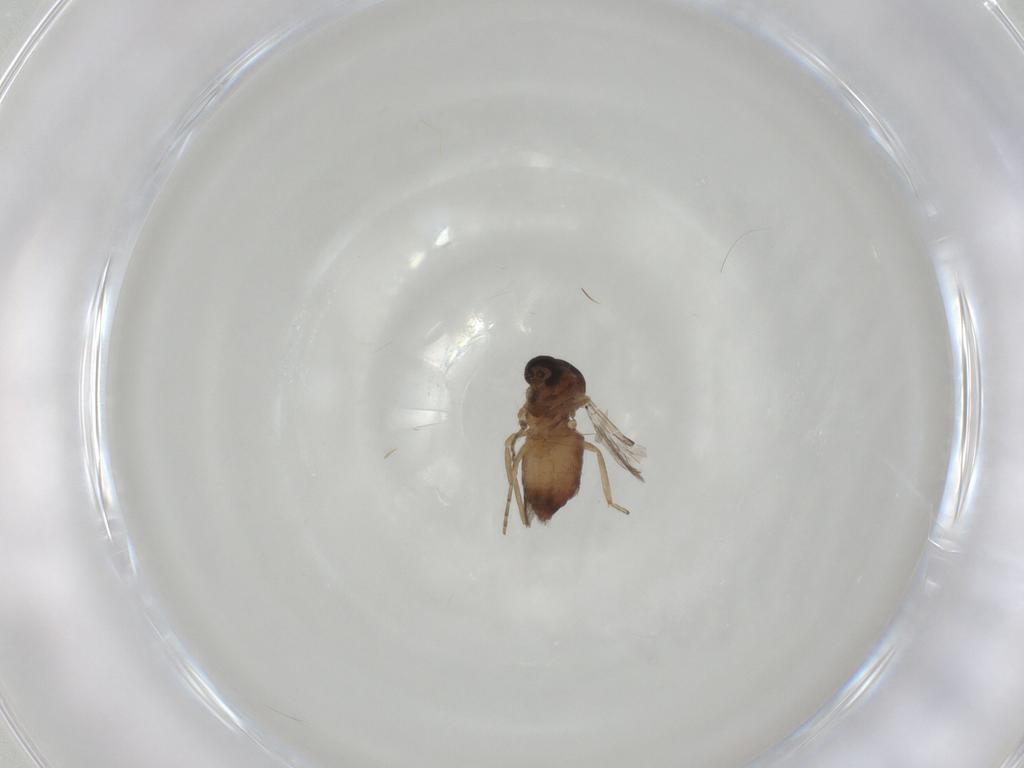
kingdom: Animalia
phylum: Arthropoda
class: Insecta
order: Diptera
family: Ceratopogonidae
